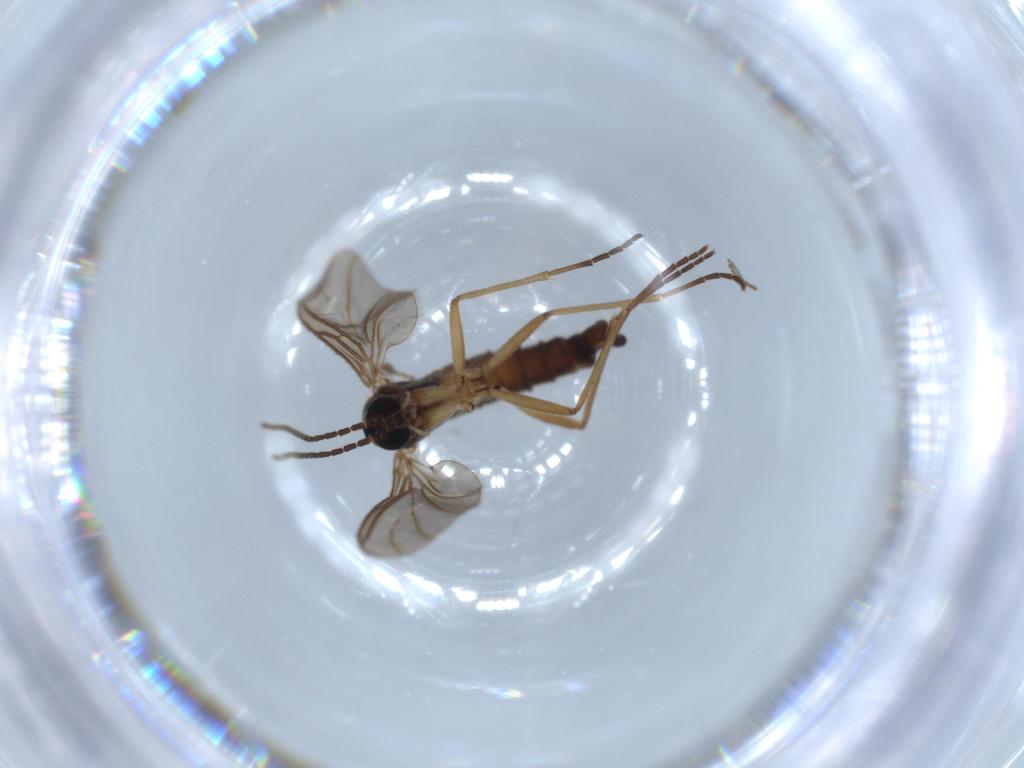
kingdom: Animalia
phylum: Arthropoda
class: Insecta
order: Diptera
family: Sciaridae
